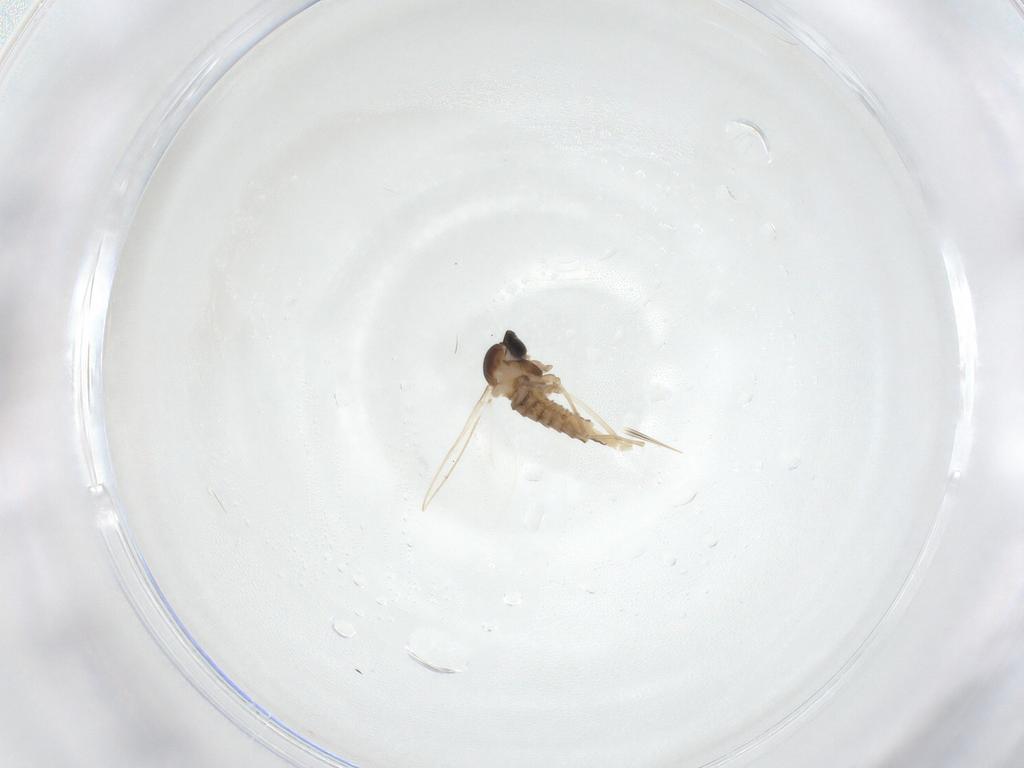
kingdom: Animalia
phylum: Arthropoda
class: Insecta
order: Diptera
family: Cecidomyiidae
